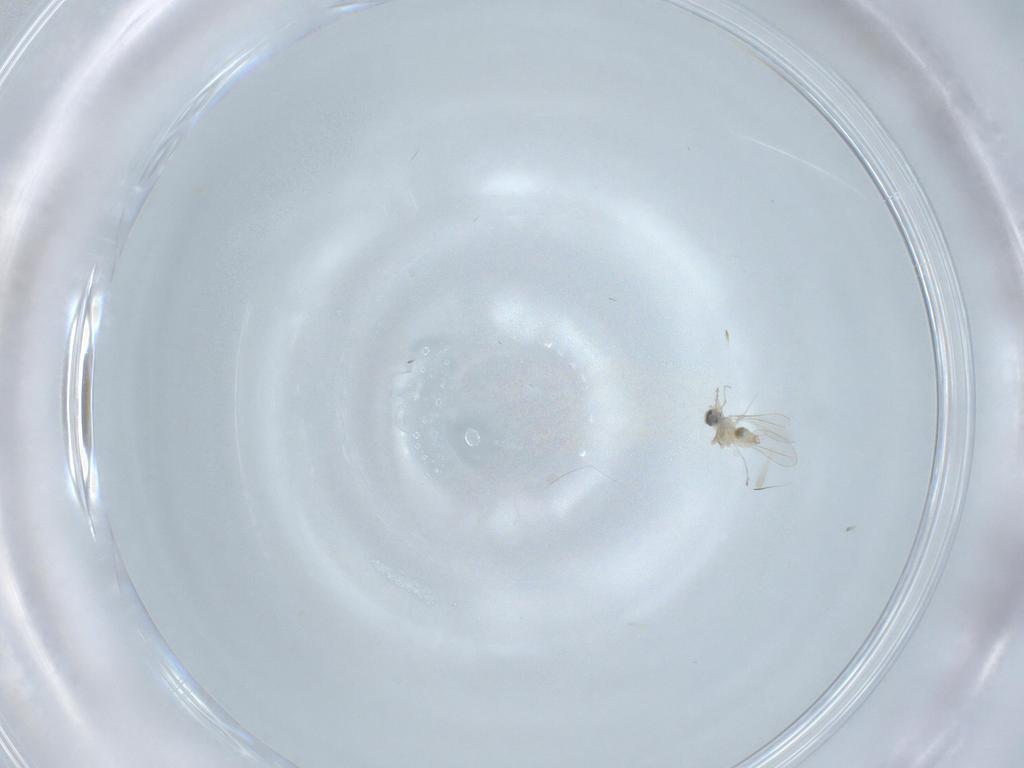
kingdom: Animalia
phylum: Arthropoda
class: Insecta
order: Diptera
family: Cecidomyiidae
